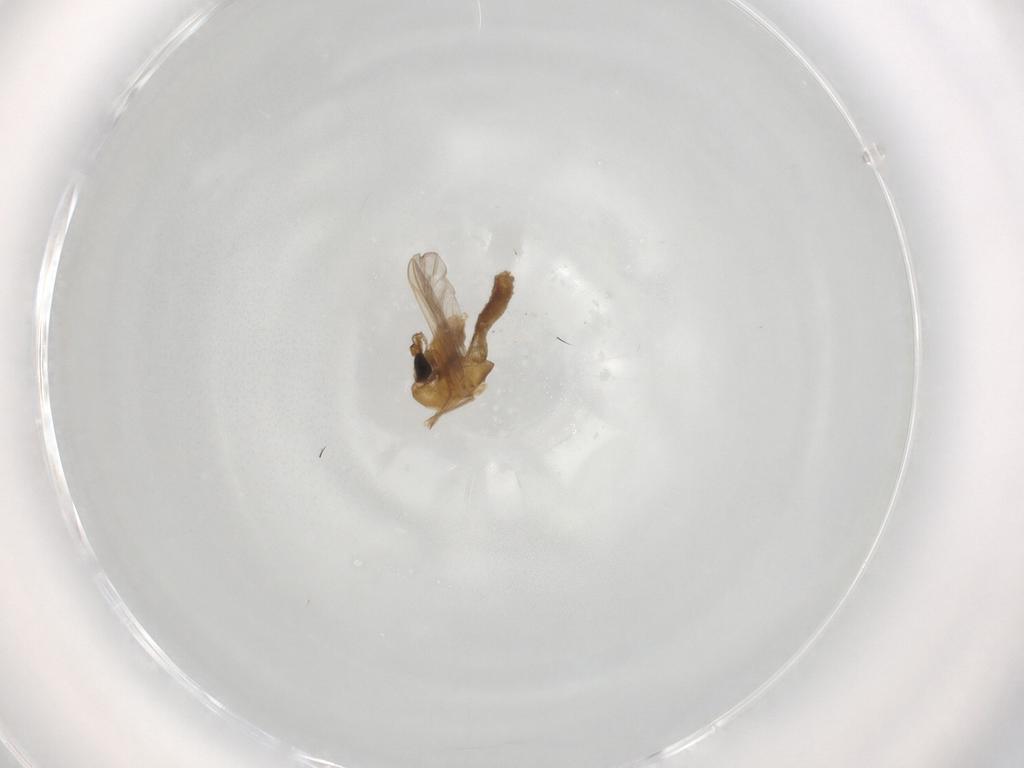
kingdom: Animalia
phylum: Arthropoda
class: Insecta
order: Diptera
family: Chironomidae
